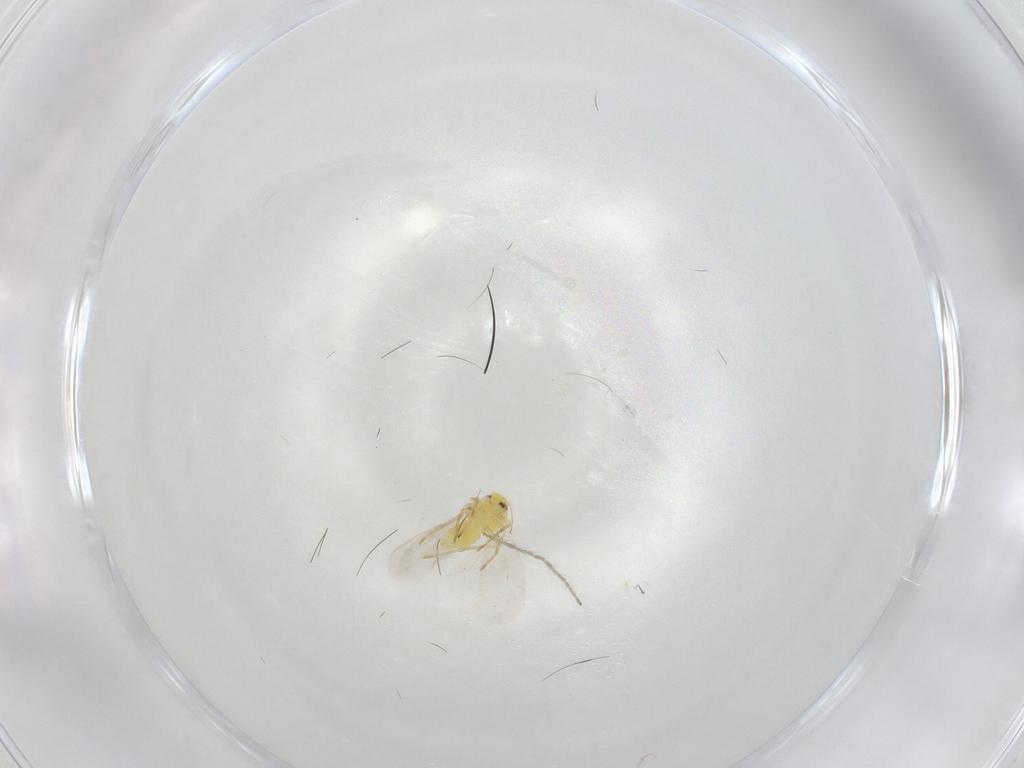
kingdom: Animalia
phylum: Arthropoda
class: Insecta
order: Hemiptera
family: Aleyrodidae
